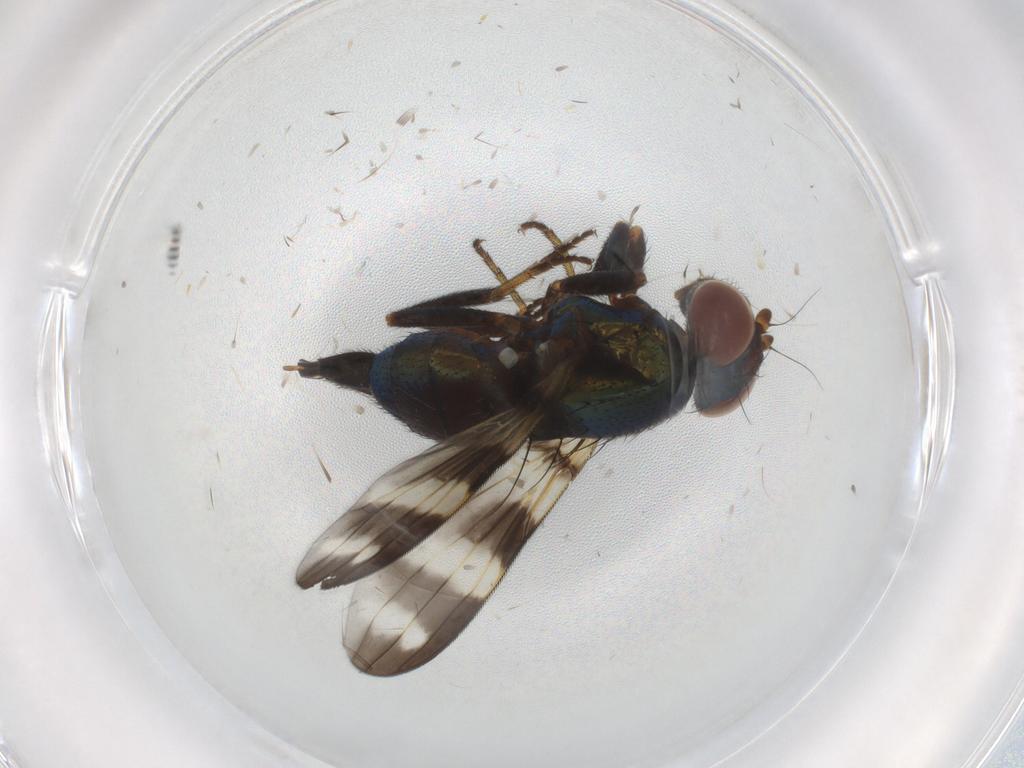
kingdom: Animalia
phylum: Arthropoda
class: Insecta
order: Diptera
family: Ulidiidae
